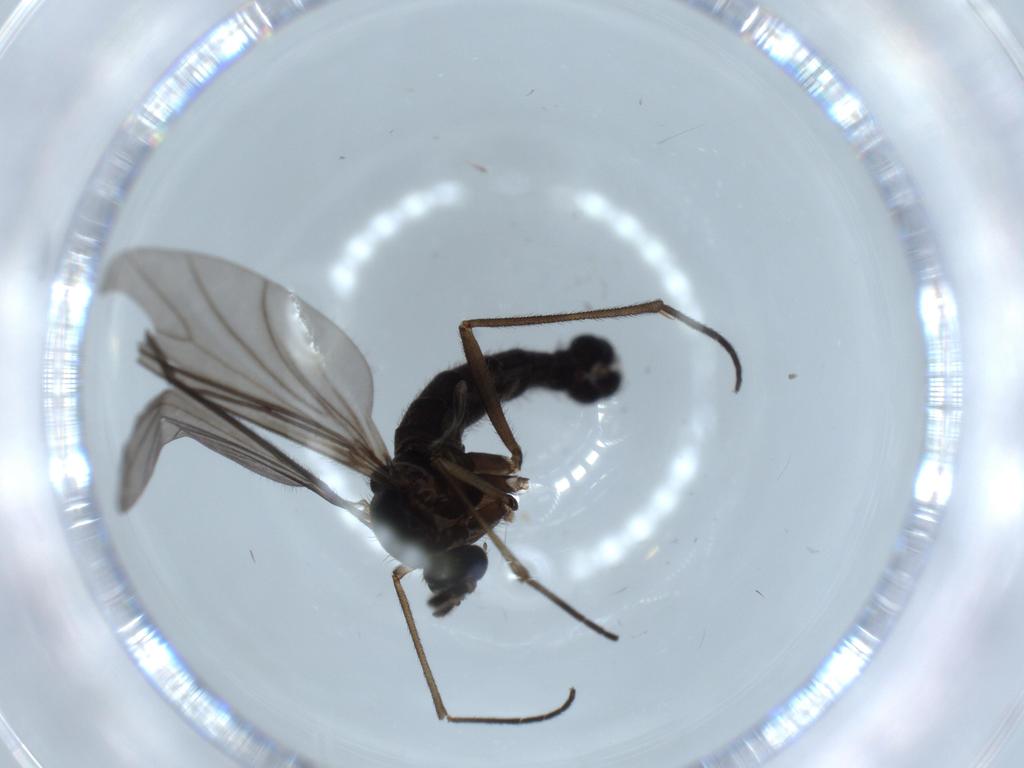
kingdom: Animalia
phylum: Arthropoda
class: Insecta
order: Diptera
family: Sciaridae
